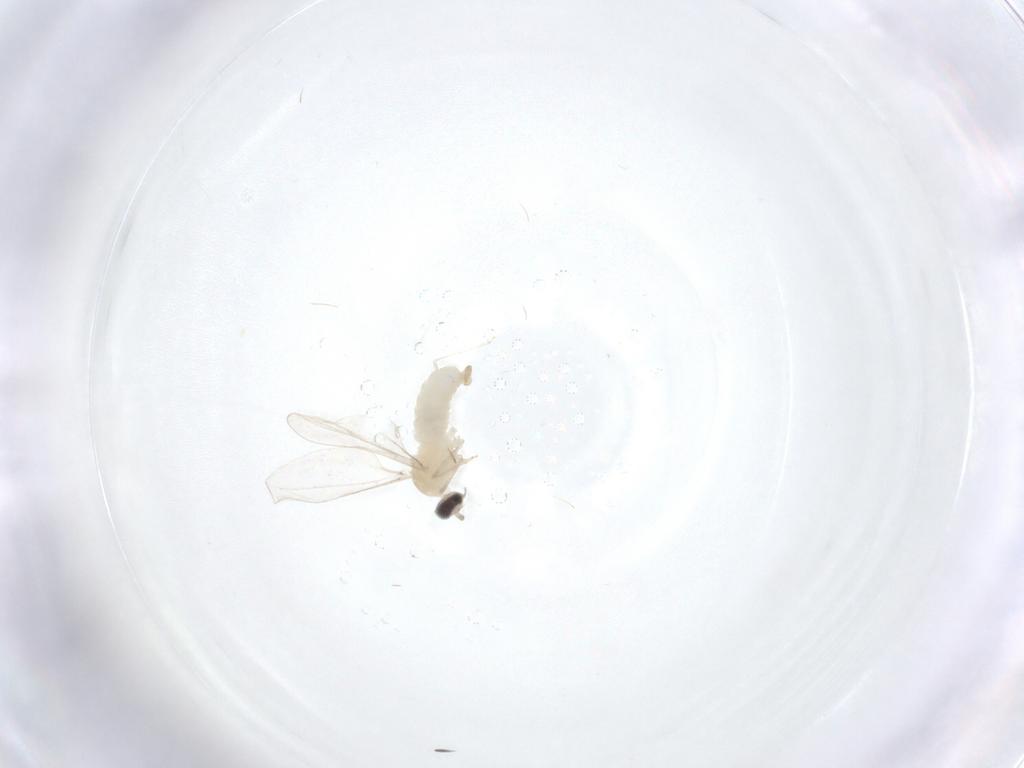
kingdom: Animalia
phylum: Arthropoda
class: Insecta
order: Diptera
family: Cecidomyiidae
